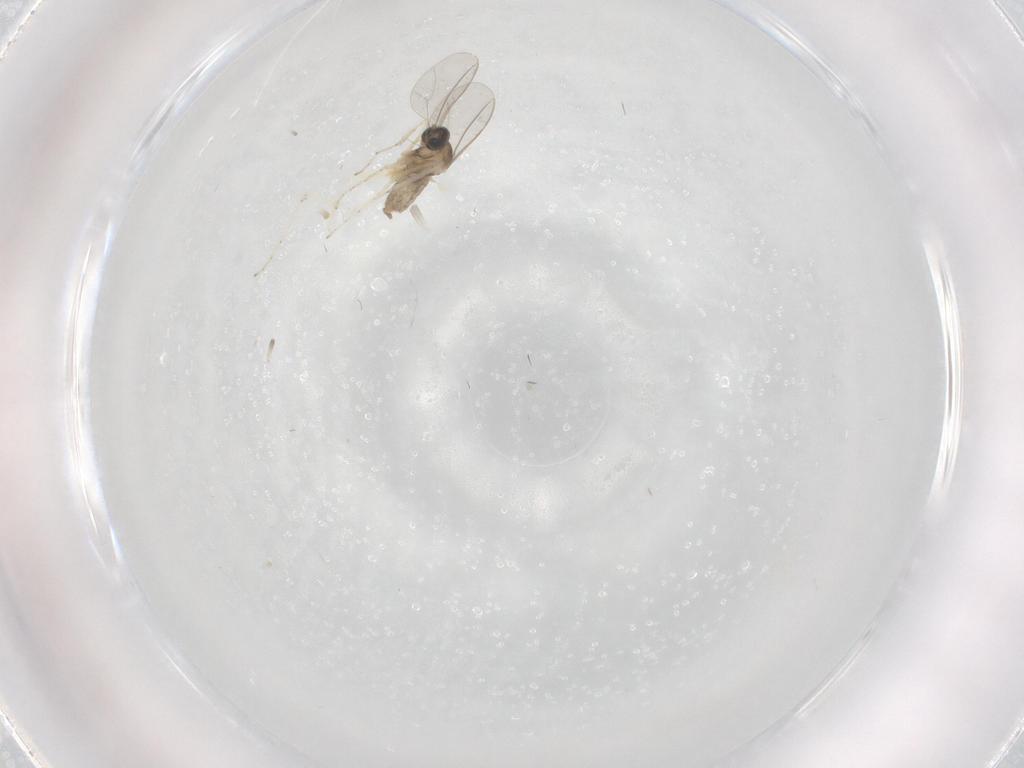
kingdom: Animalia
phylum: Arthropoda
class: Insecta
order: Diptera
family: Cecidomyiidae
